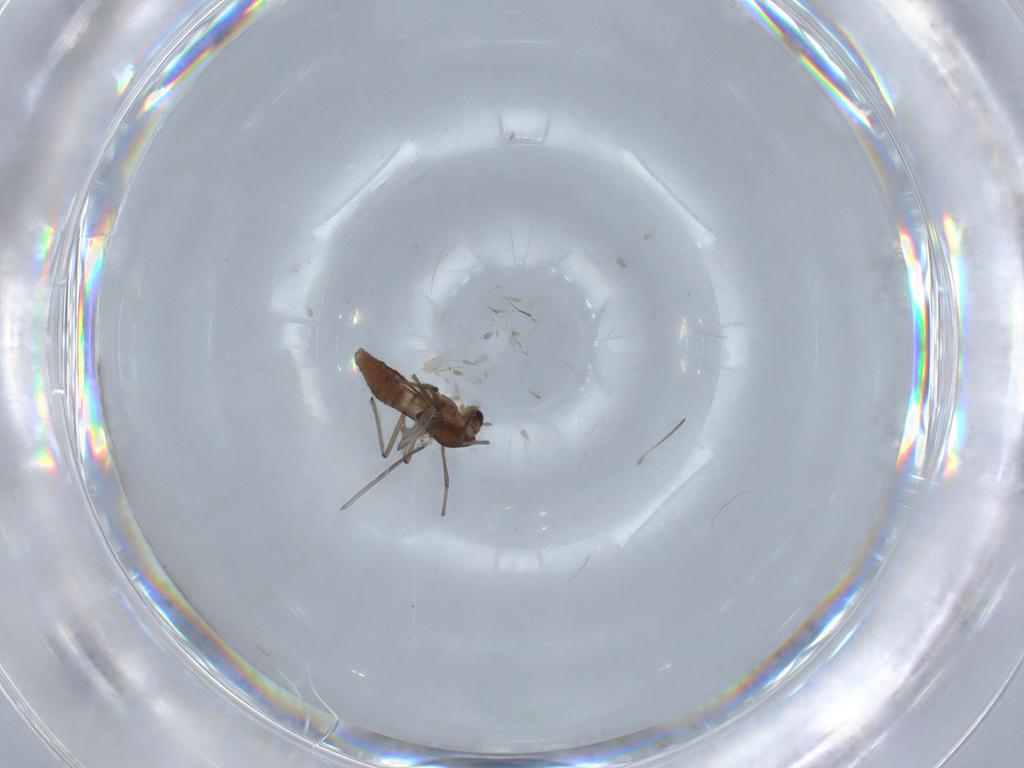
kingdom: Animalia
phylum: Arthropoda
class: Insecta
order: Diptera
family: Chironomidae
